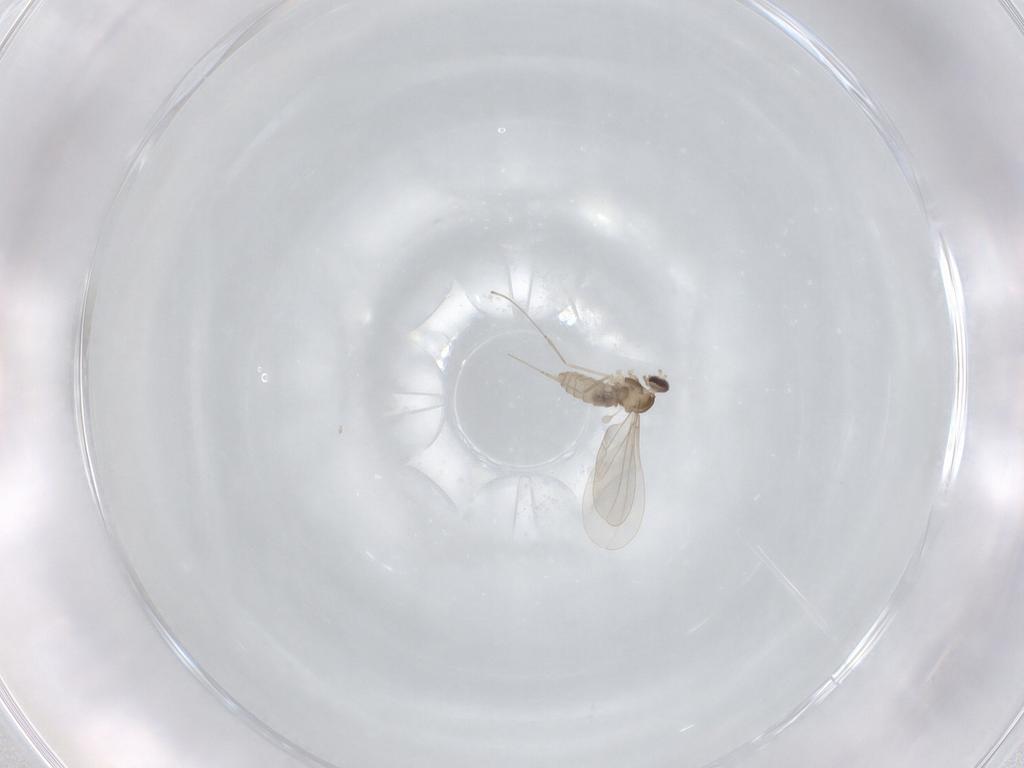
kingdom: Animalia
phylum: Arthropoda
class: Insecta
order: Diptera
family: Cecidomyiidae
